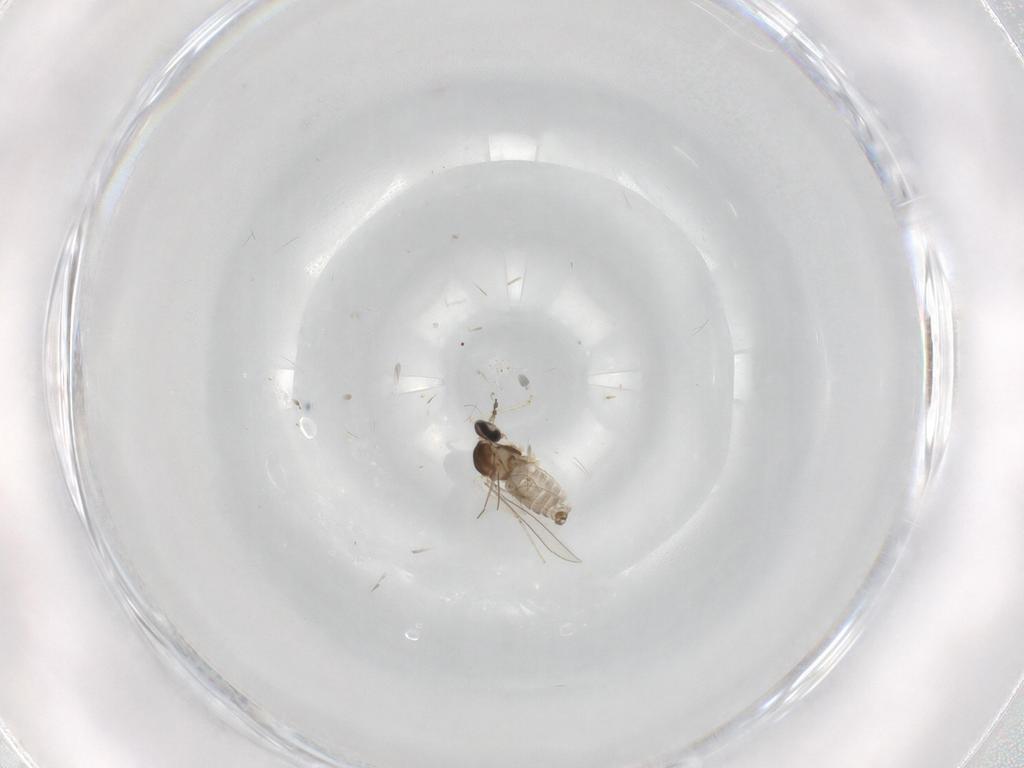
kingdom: Animalia
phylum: Arthropoda
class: Insecta
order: Diptera
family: Cecidomyiidae
